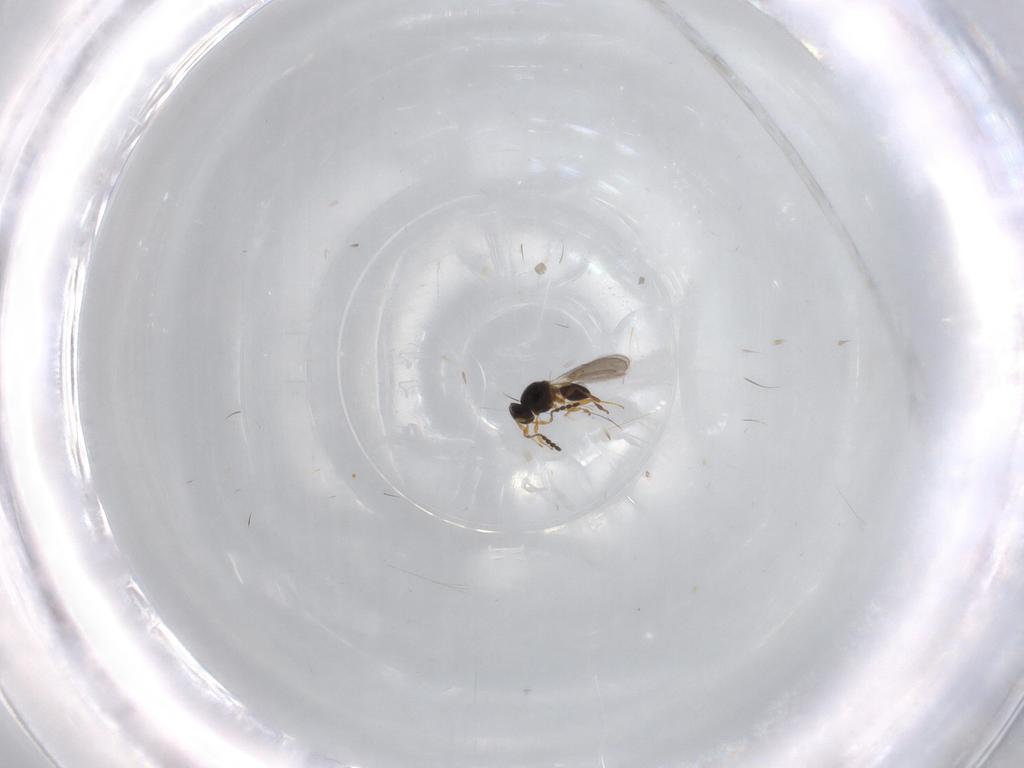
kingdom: Animalia
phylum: Arthropoda
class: Insecta
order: Hymenoptera
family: Platygastridae
